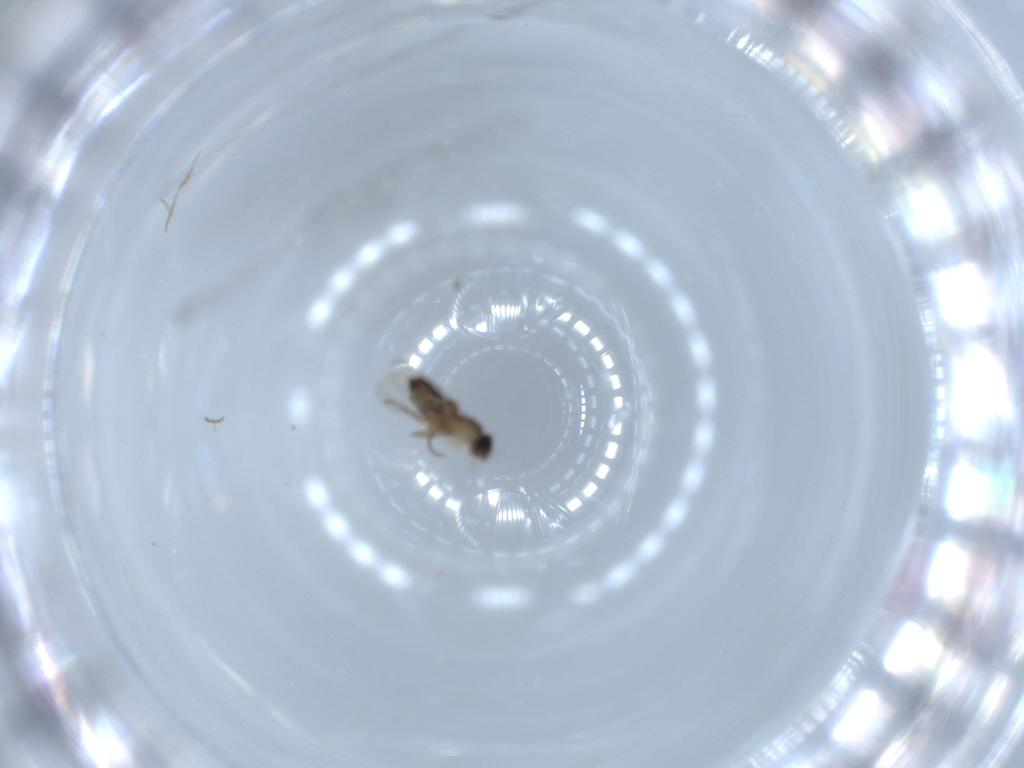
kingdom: Animalia
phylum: Arthropoda
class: Insecta
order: Diptera
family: Phoridae
